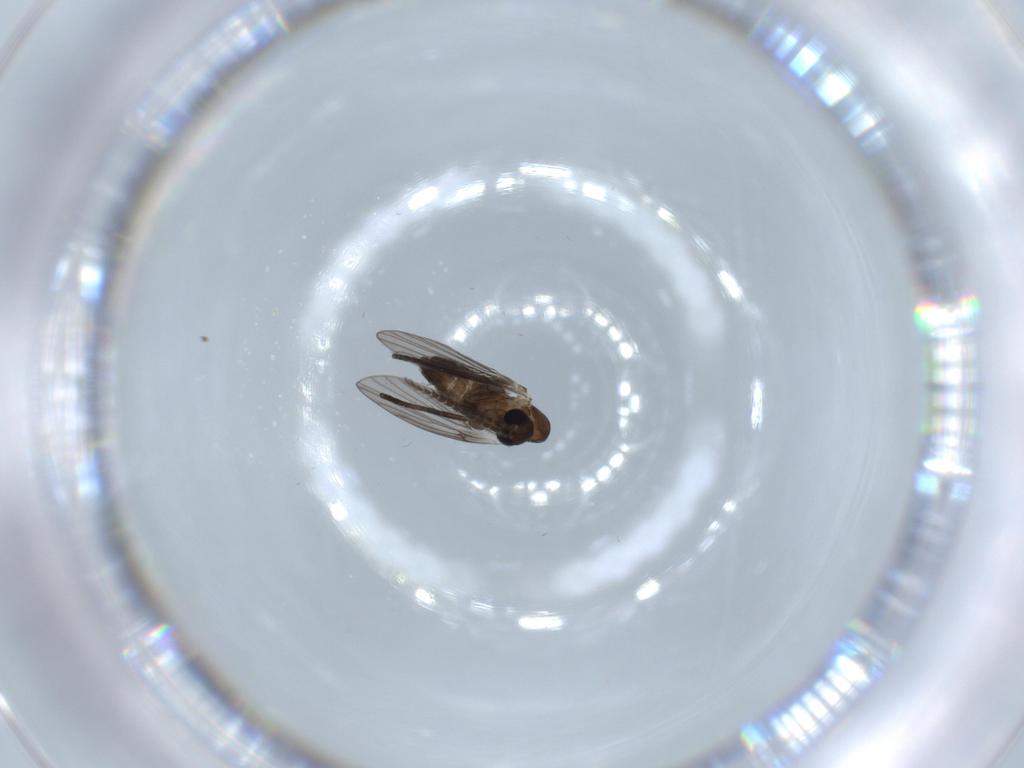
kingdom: Animalia
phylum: Arthropoda
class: Insecta
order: Diptera
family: Psychodidae
